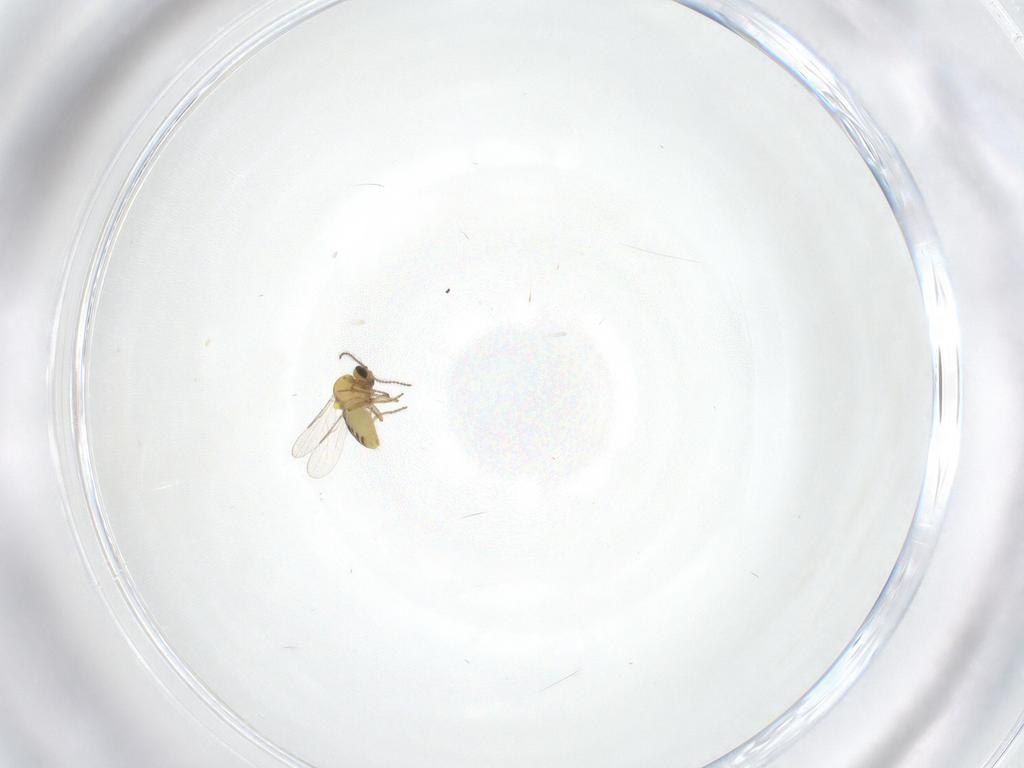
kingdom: Animalia
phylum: Arthropoda
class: Insecta
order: Diptera
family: Ceratopogonidae
